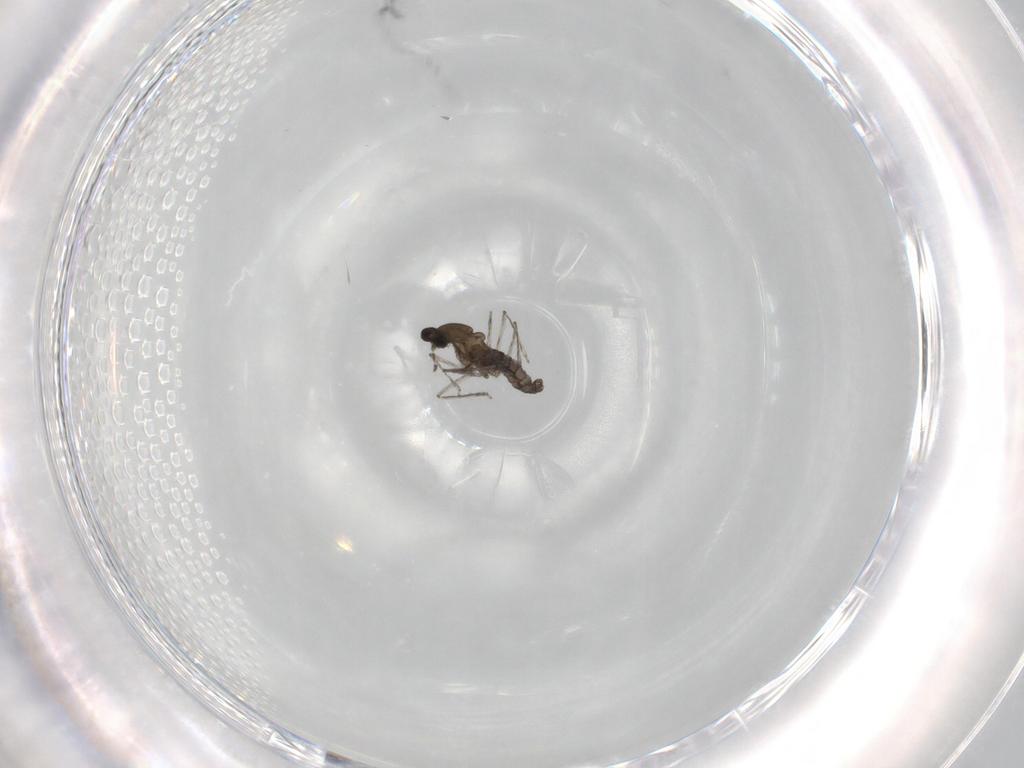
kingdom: Animalia
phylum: Arthropoda
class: Insecta
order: Diptera
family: Cecidomyiidae
